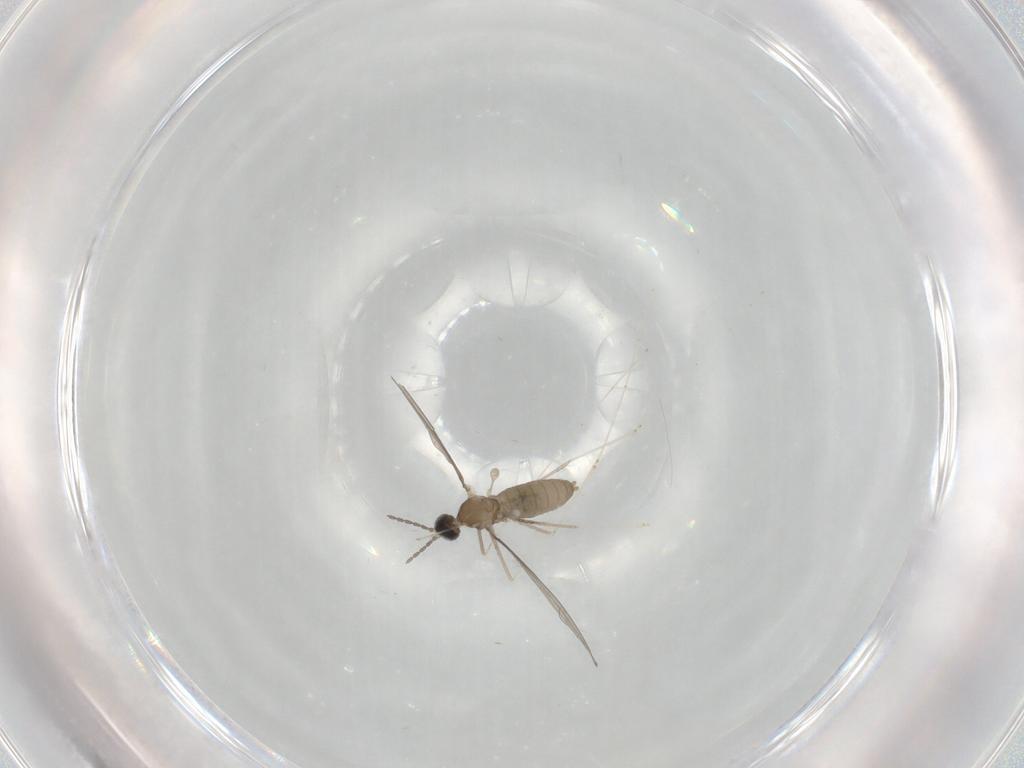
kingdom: Animalia
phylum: Arthropoda
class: Insecta
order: Diptera
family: Cecidomyiidae
